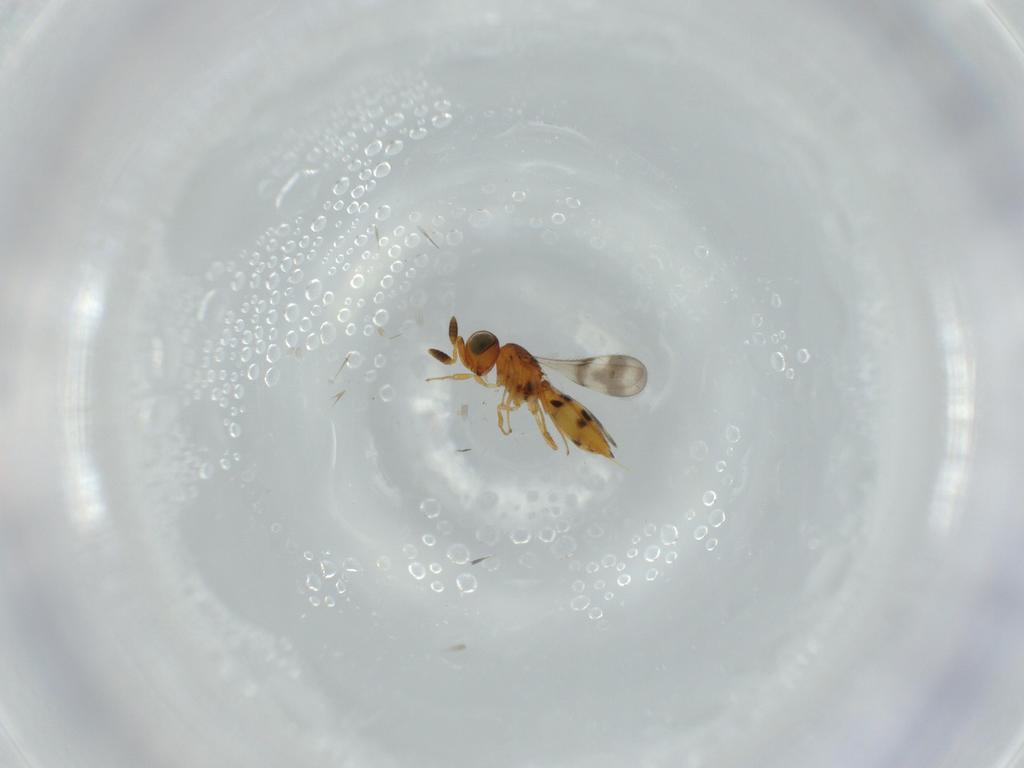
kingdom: Animalia
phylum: Arthropoda
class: Insecta
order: Hymenoptera
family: Scelionidae
